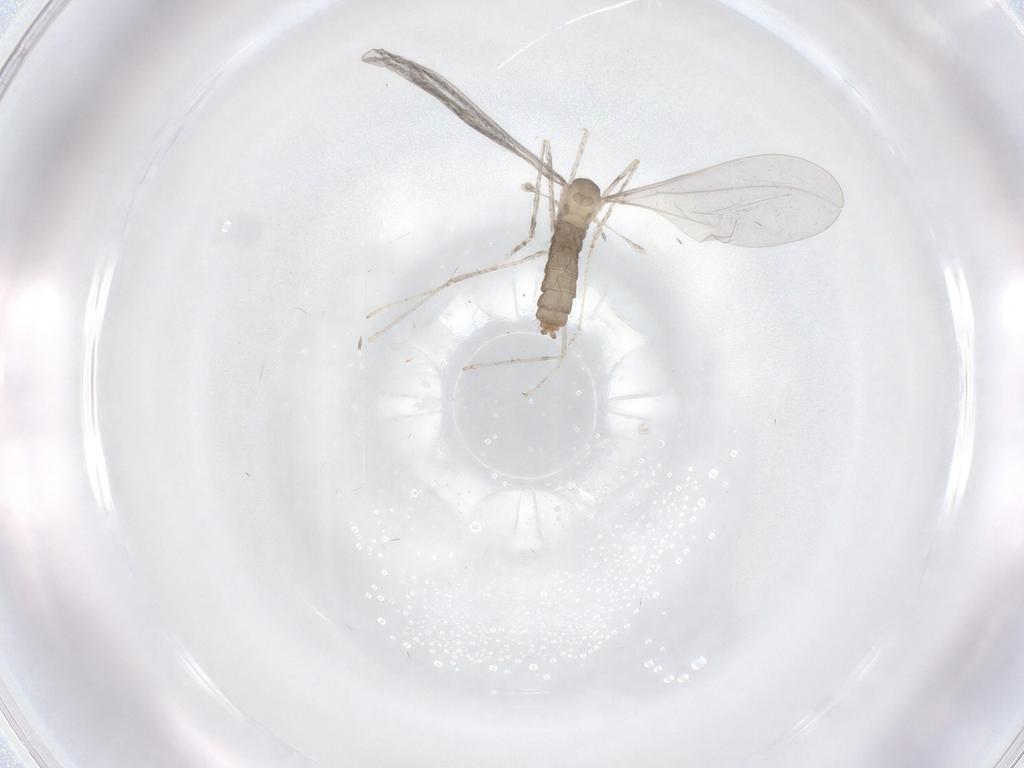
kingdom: Animalia
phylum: Arthropoda
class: Insecta
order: Diptera
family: Cecidomyiidae
